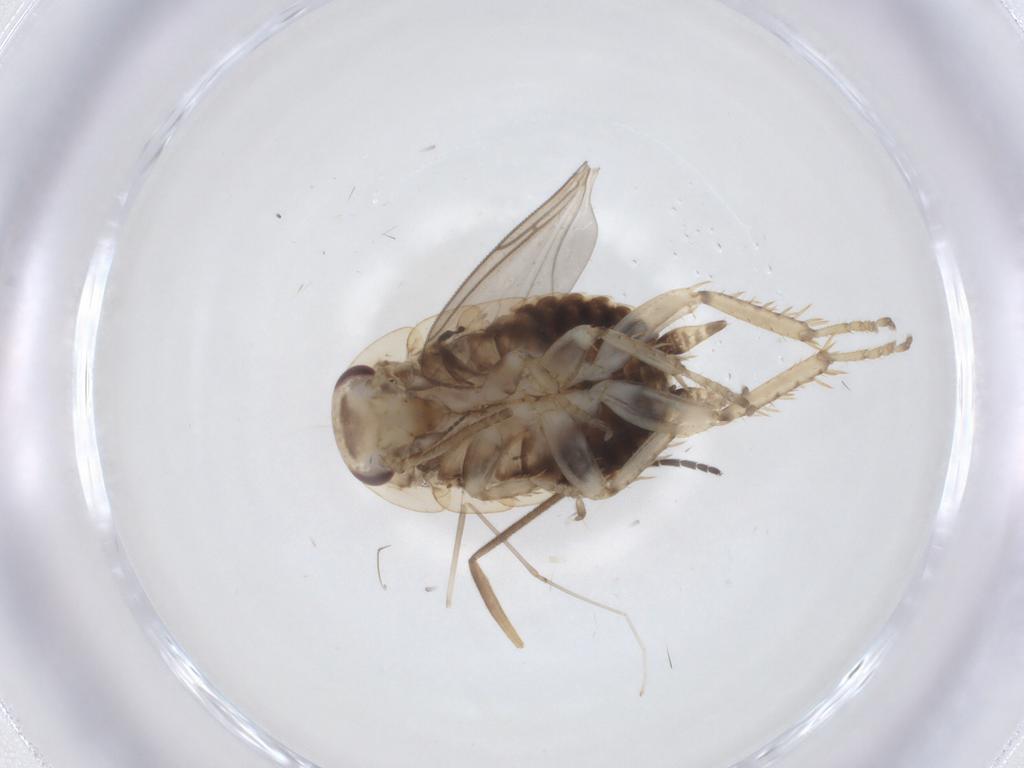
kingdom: Animalia
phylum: Arthropoda
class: Insecta
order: Blattodea
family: Ectobiidae
